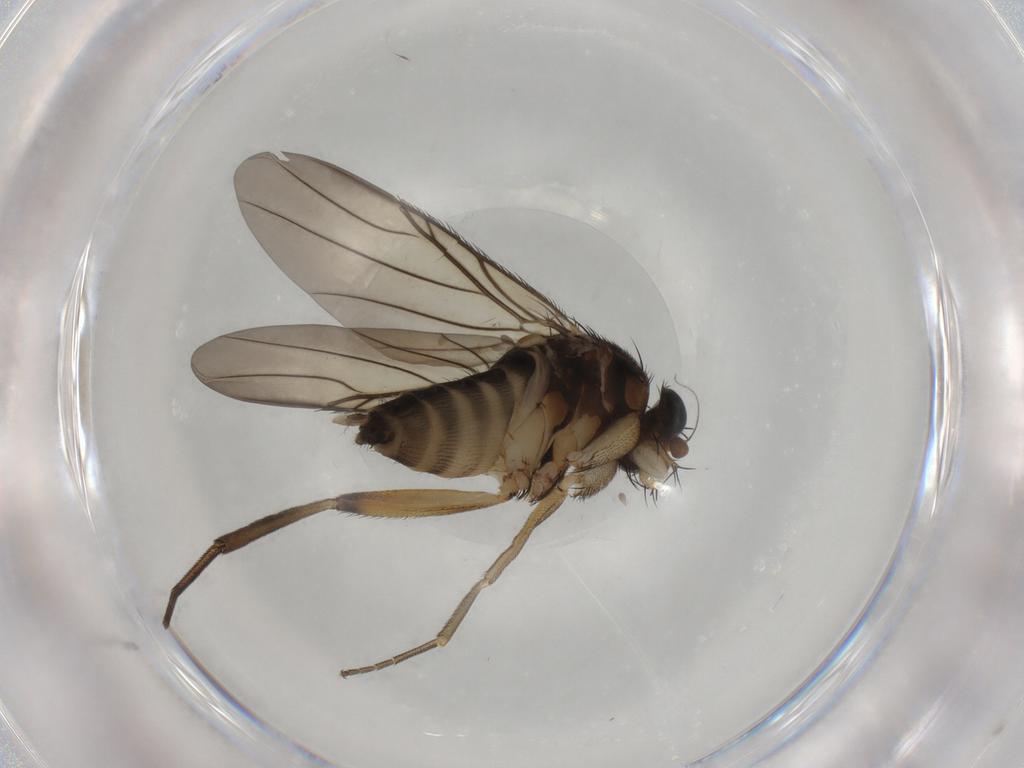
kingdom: Animalia
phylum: Arthropoda
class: Insecta
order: Diptera
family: Phoridae
